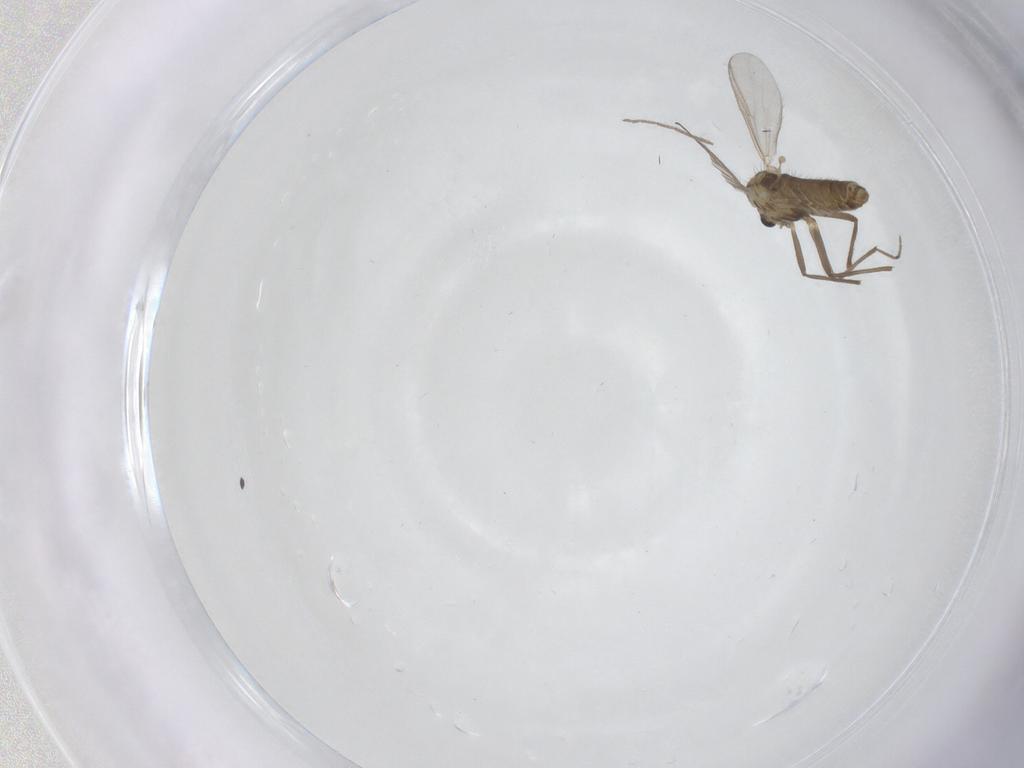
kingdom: Animalia
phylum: Arthropoda
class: Insecta
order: Diptera
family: Chironomidae
